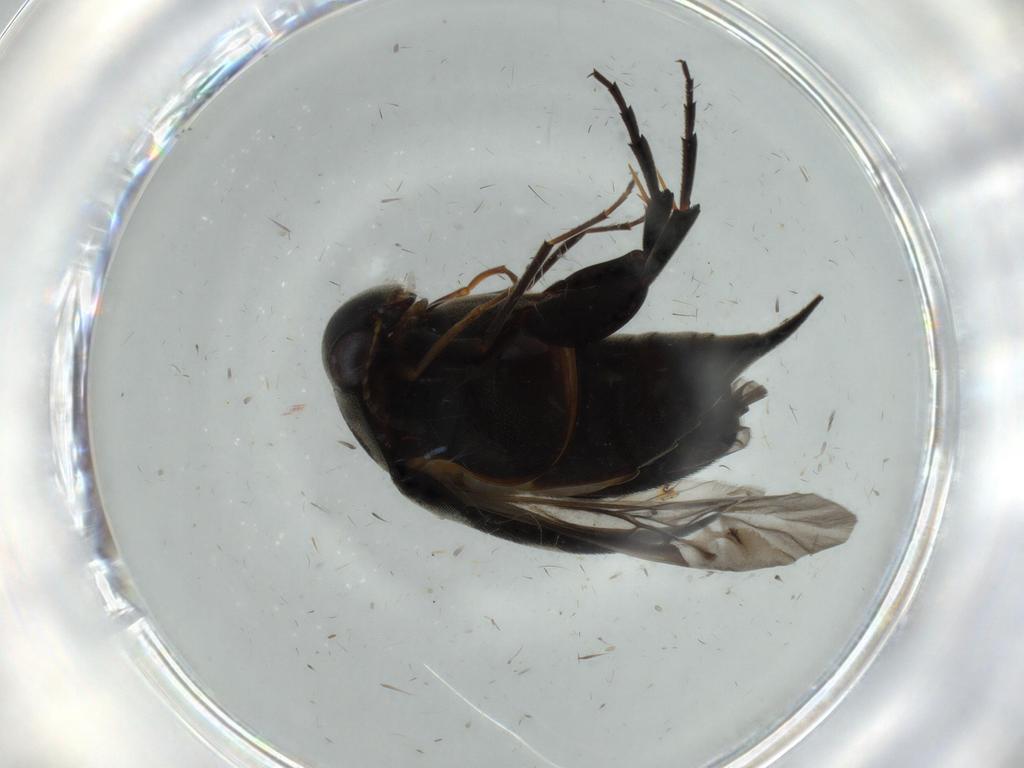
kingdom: Animalia
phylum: Arthropoda
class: Insecta
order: Coleoptera
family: Coccinellidae
